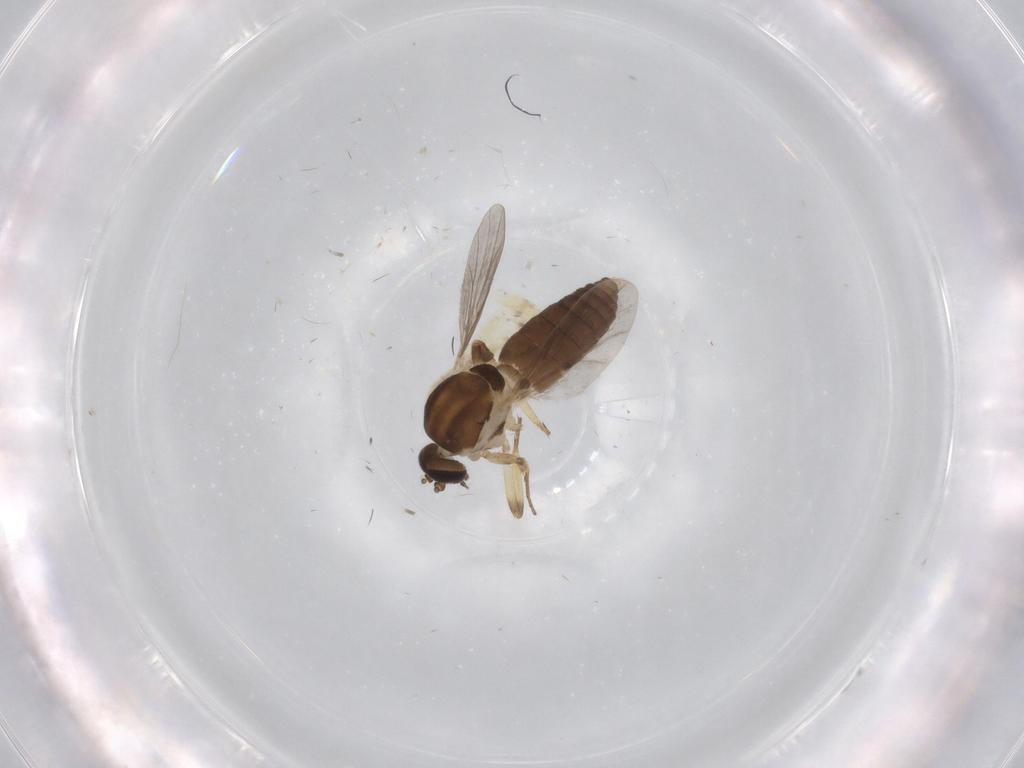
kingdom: Animalia
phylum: Arthropoda
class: Insecta
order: Diptera
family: Ceratopogonidae
